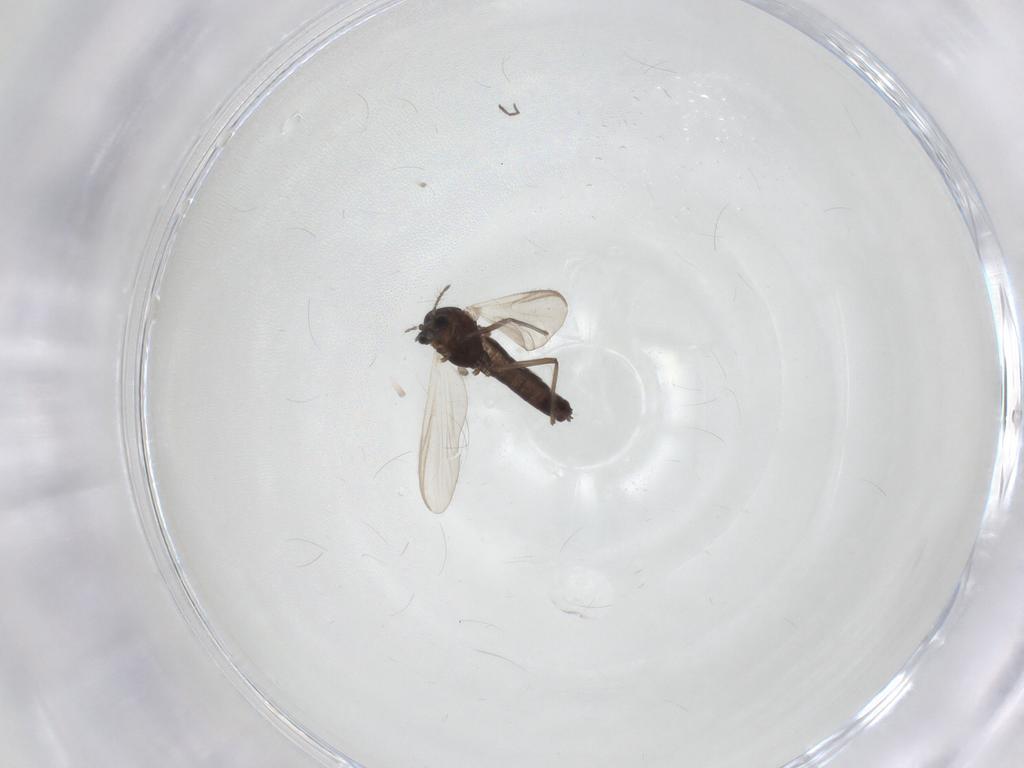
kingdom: Animalia
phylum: Arthropoda
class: Insecta
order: Diptera
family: Chironomidae
